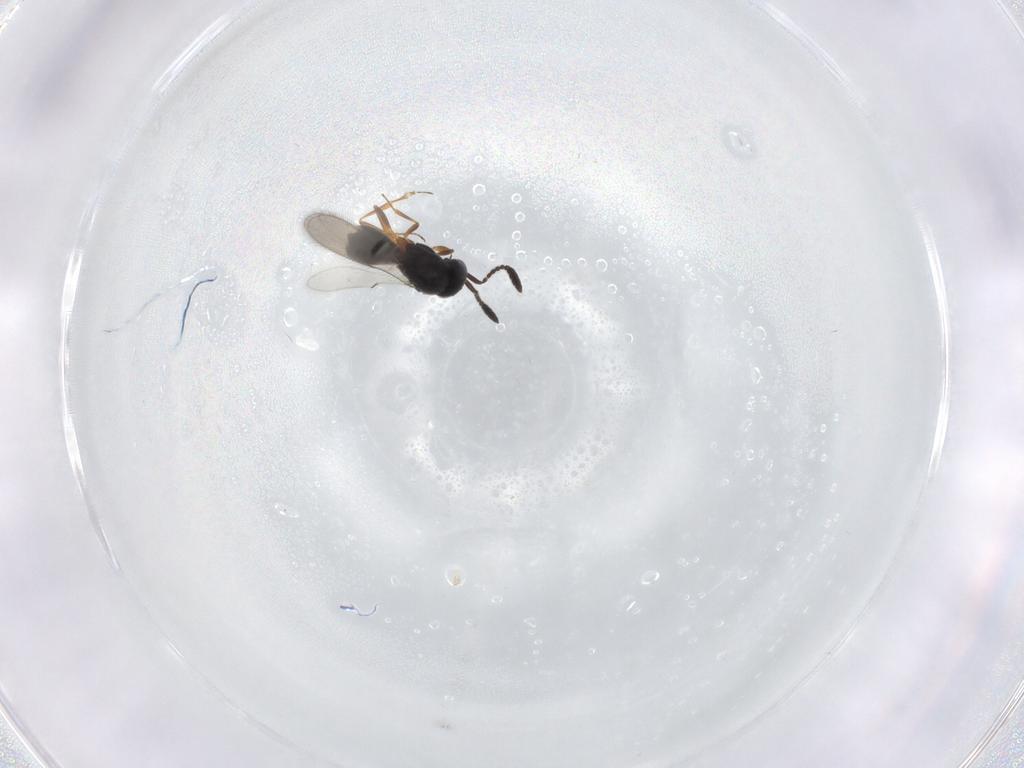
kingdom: Animalia
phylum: Arthropoda
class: Insecta
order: Hymenoptera
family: Scelionidae
